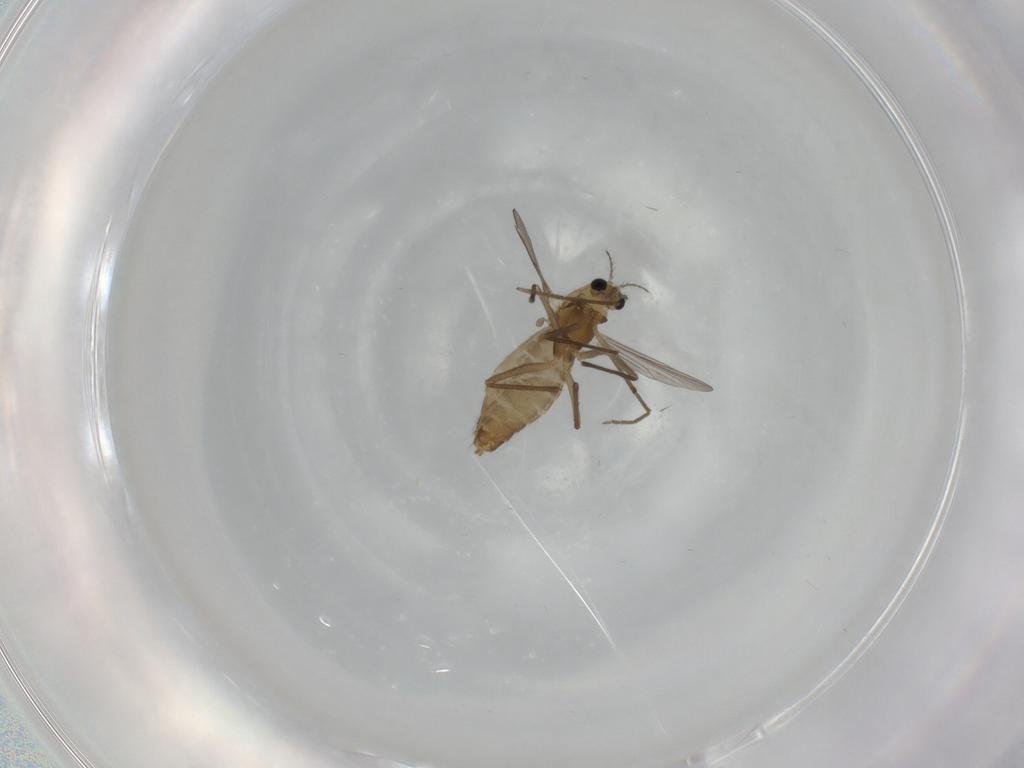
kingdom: Animalia
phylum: Arthropoda
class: Insecta
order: Diptera
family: Chironomidae
